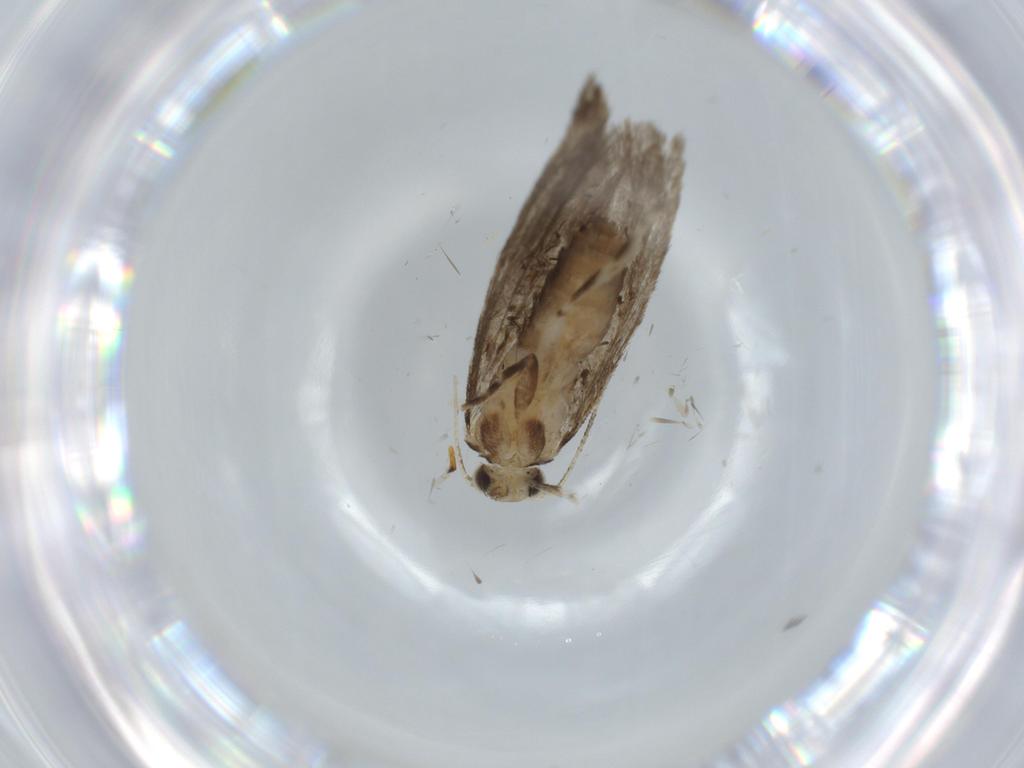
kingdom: Animalia
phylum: Arthropoda
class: Insecta
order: Lepidoptera
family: Tineidae
